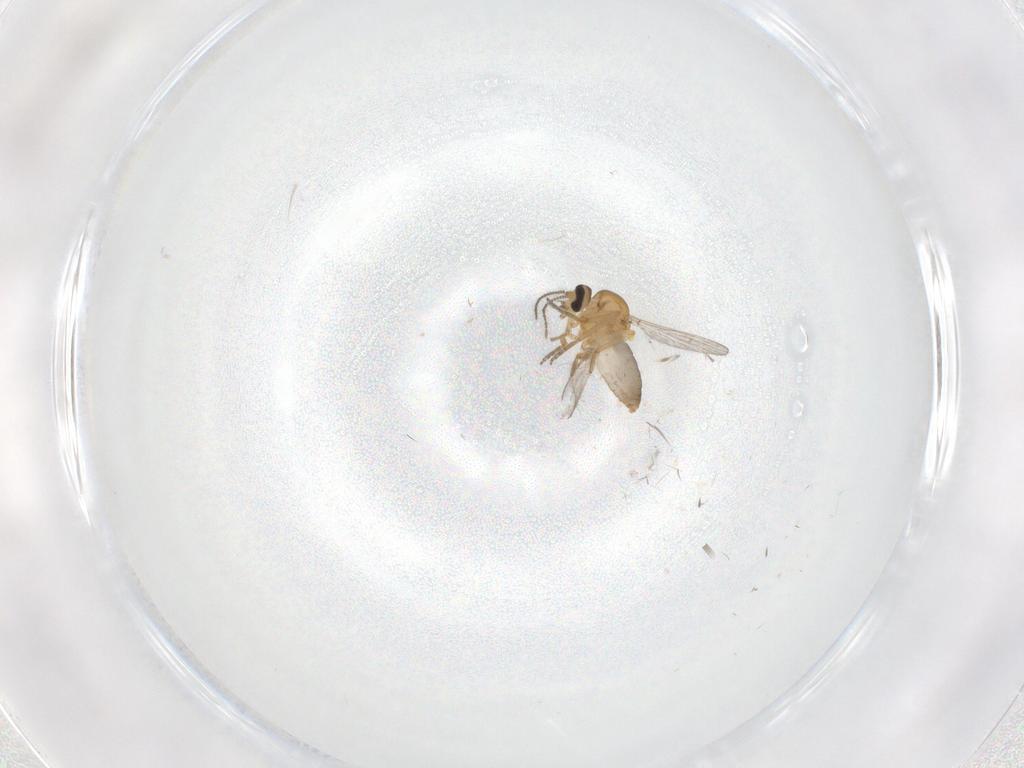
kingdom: Animalia
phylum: Arthropoda
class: Insecta
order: Diptera
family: Ceratopogonidae
